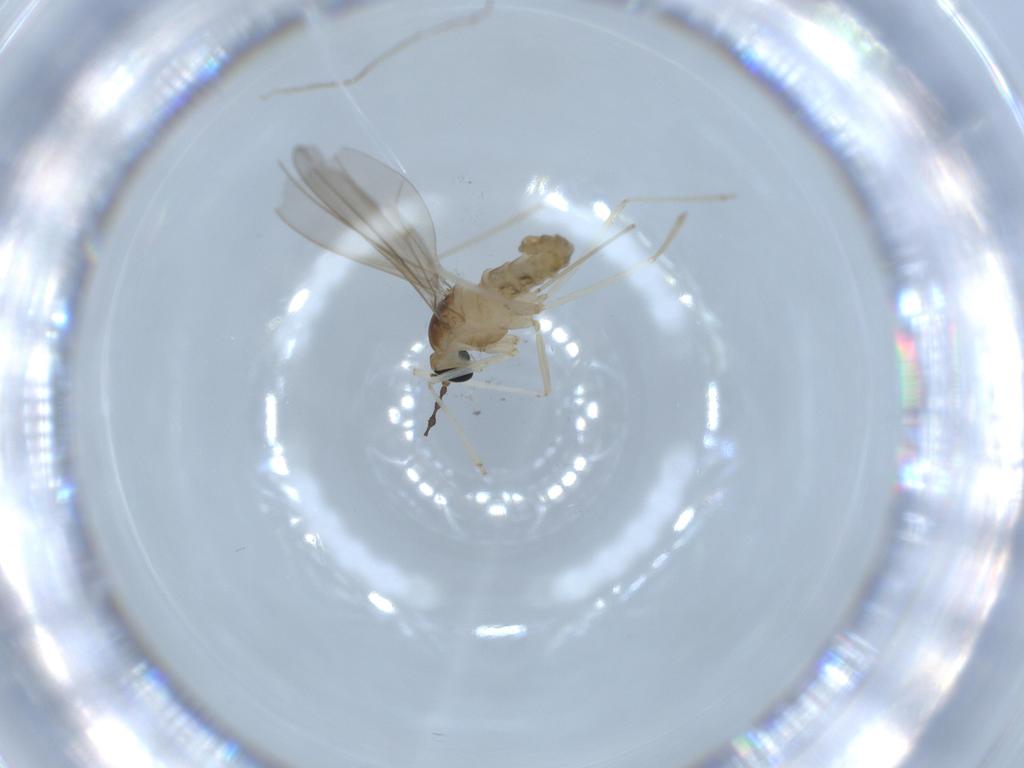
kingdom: Animalia
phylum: Arthropoda
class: Insecta
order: Diptera
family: Cecidomyiidae
